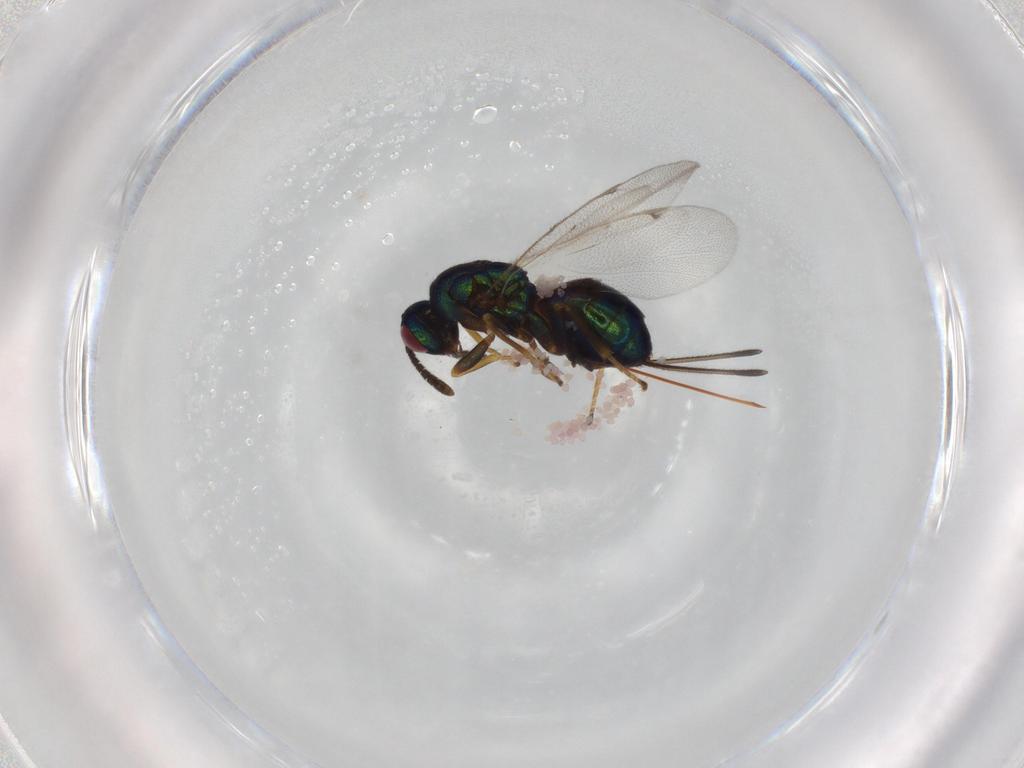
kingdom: Animalia
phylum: Arthropoda
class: Insecta
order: Hymenoptera
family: Torymidae
